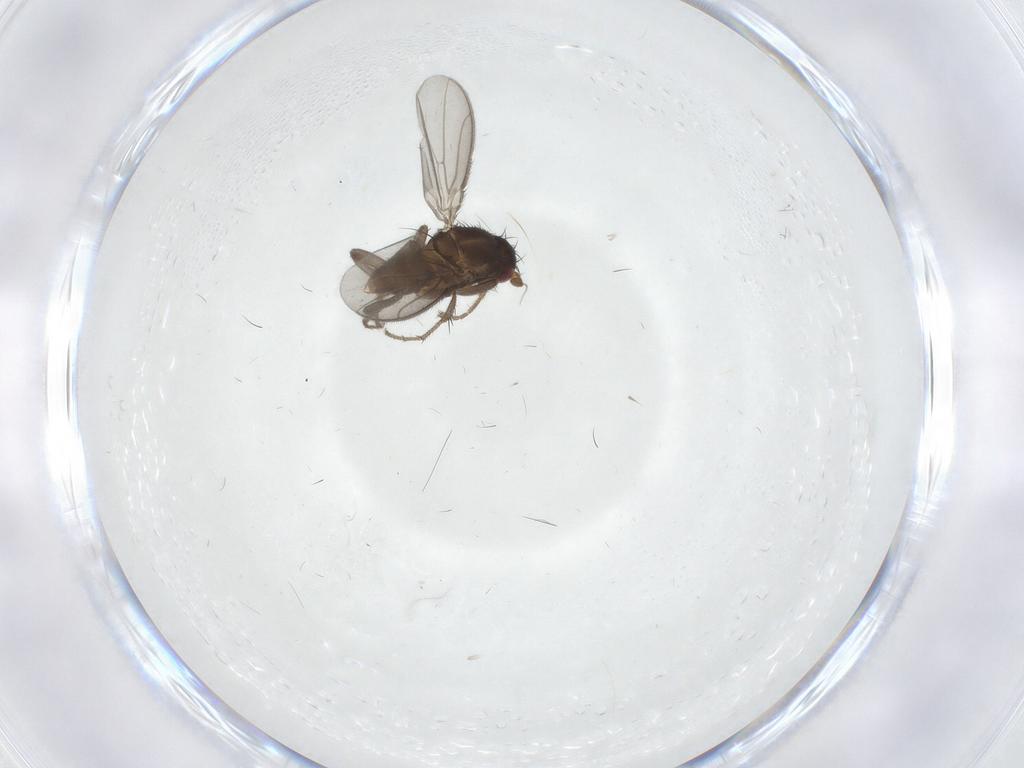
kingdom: Animalia
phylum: Arthropoda
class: Insecta
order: Diptera
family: Sphaeroceridae
